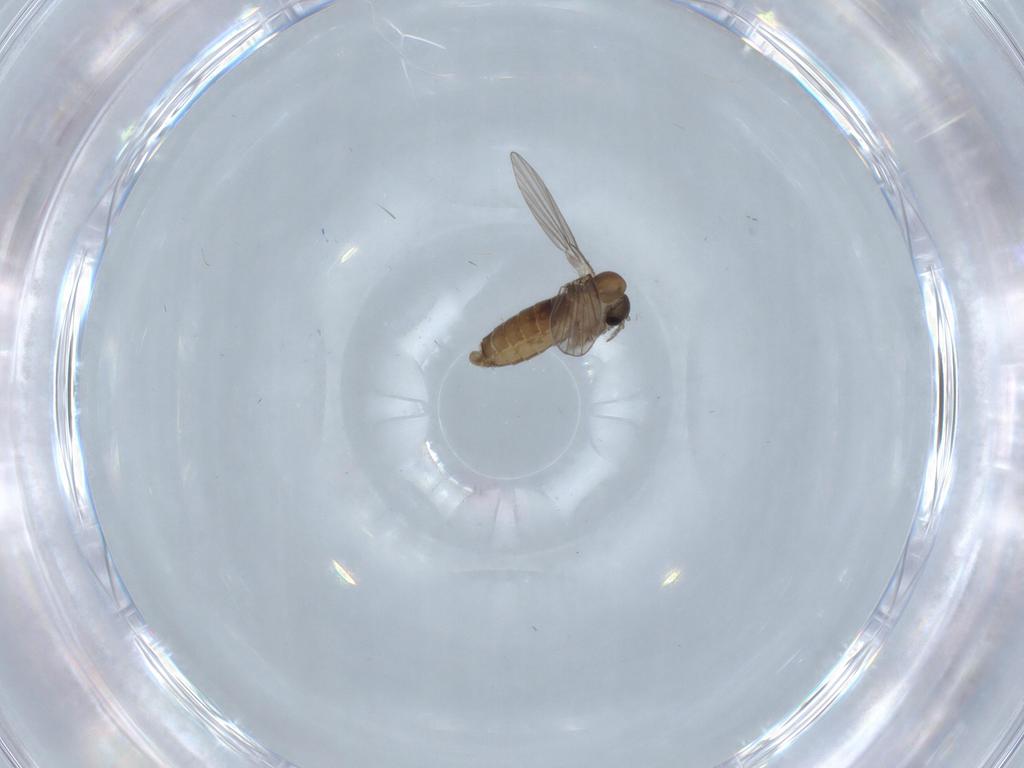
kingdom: Animalia
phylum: Arthropoda
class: Insecta
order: Diptera
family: Psychodidae
